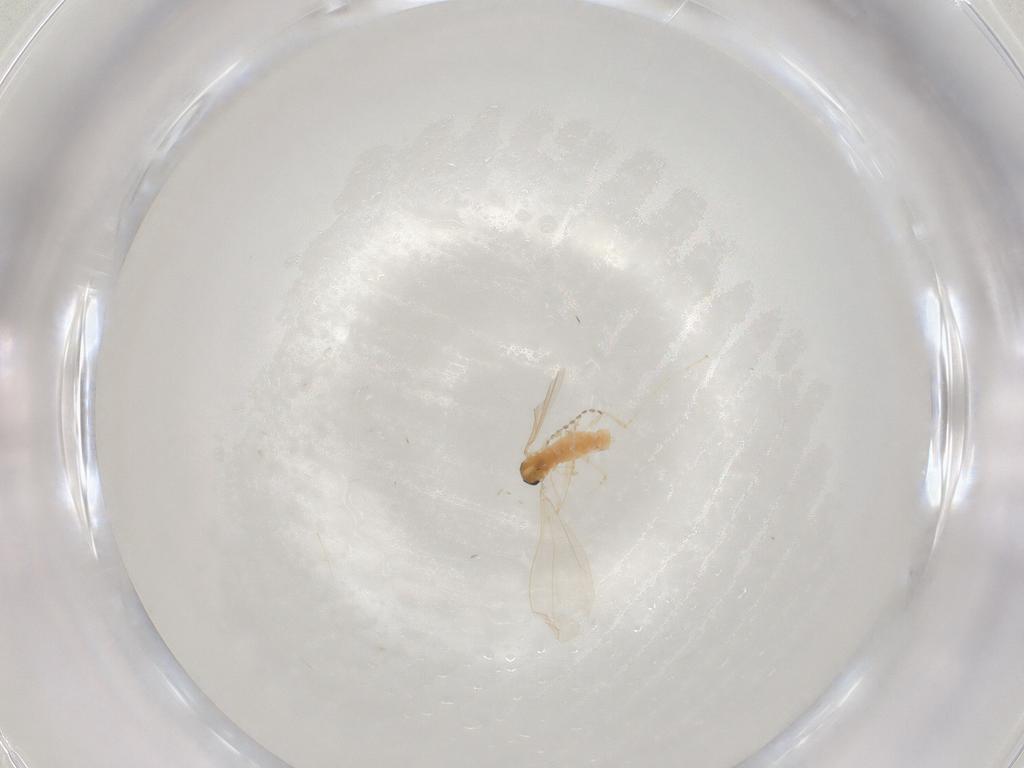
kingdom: Animalia
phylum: Arthropoda
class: Insecta
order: Diptera
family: Cecidomyiidae
